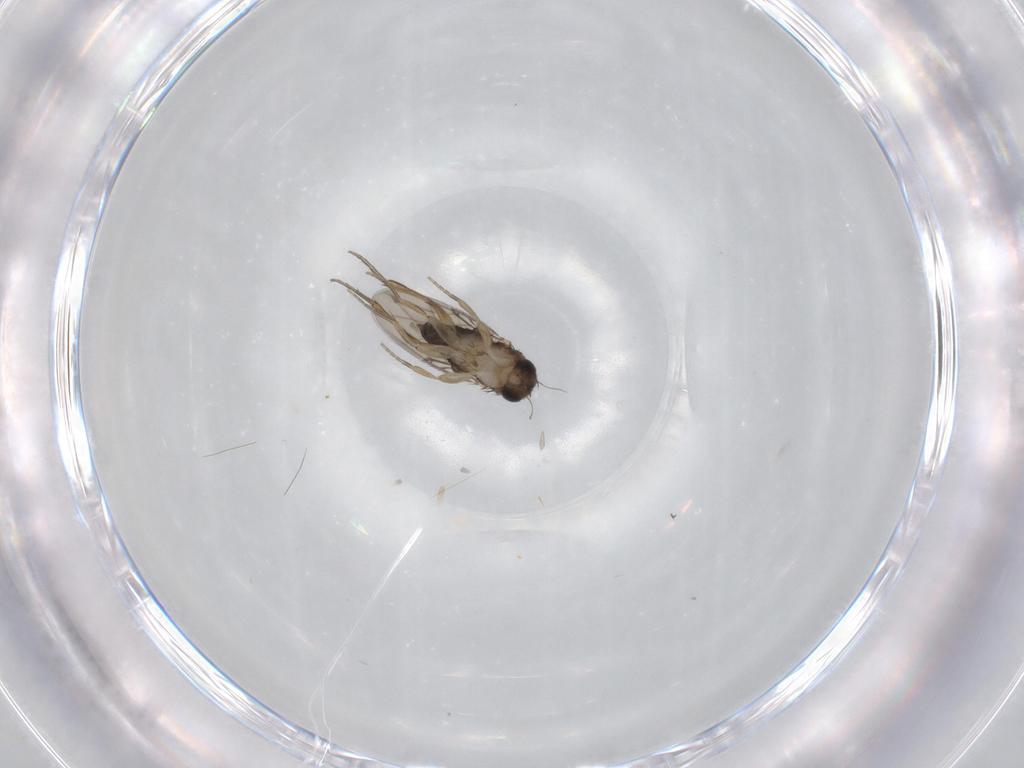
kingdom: Animalia
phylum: Arthropoda
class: Insecta
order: Diptera
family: Phoridae
